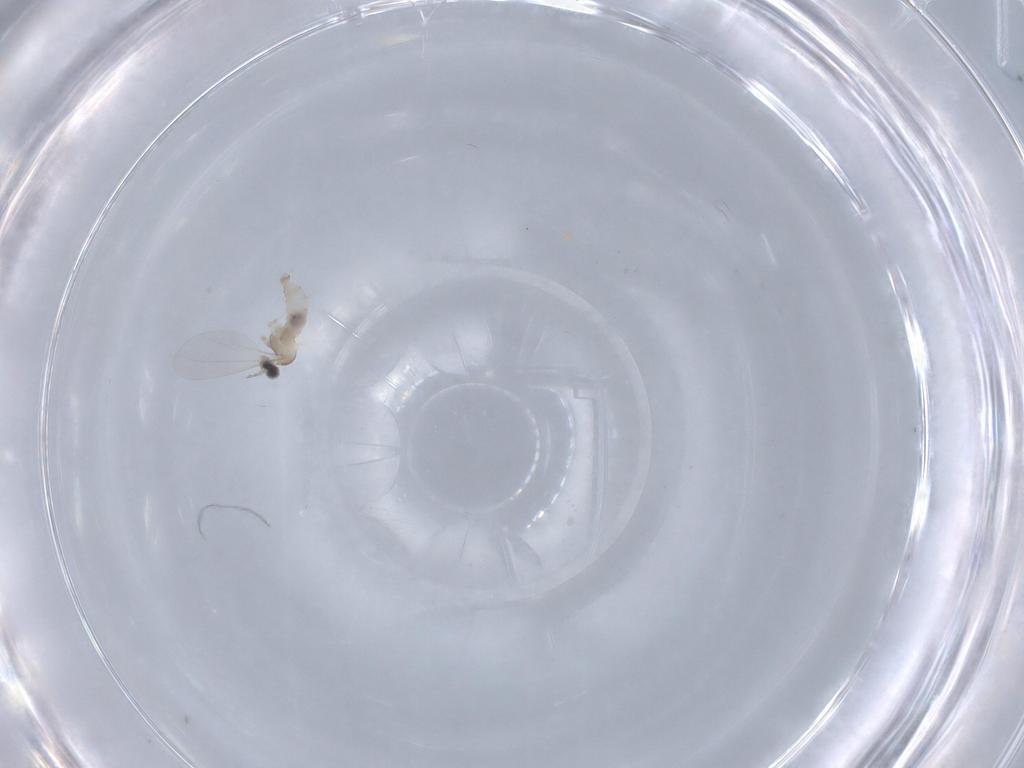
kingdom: Animalia
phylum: Arthropoda
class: Insecta
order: Diptera
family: Cecidomyiidae
